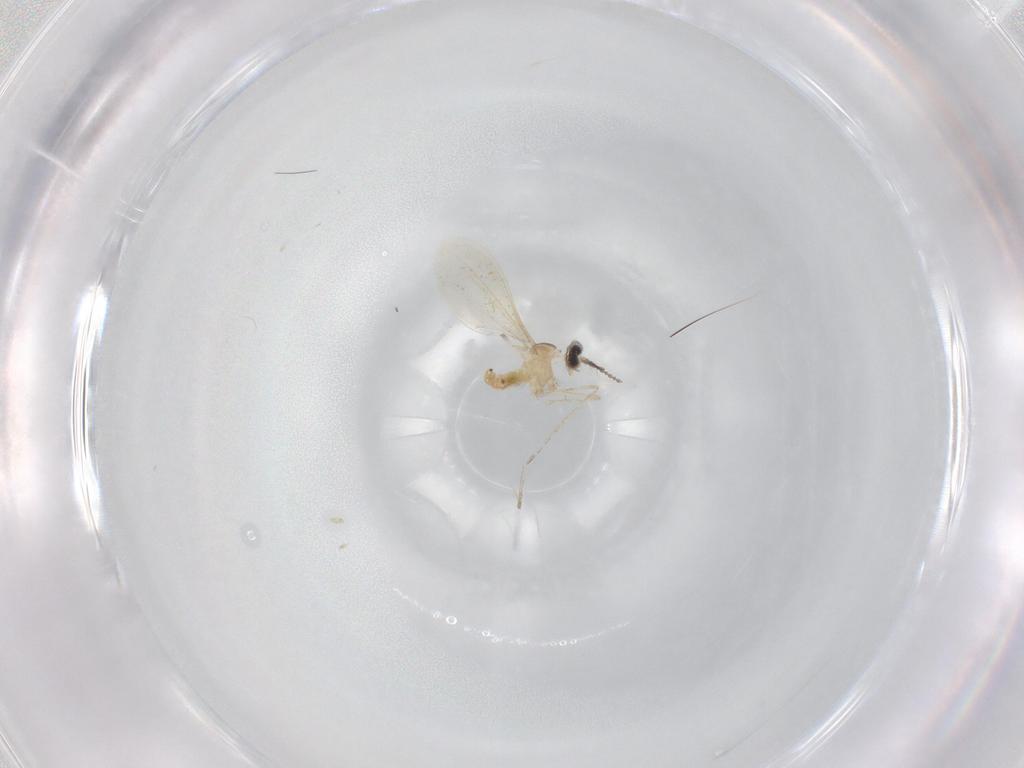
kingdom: Animalia
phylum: Arthropoda
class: Insecta
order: Diptera
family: Cecidomyiidae
